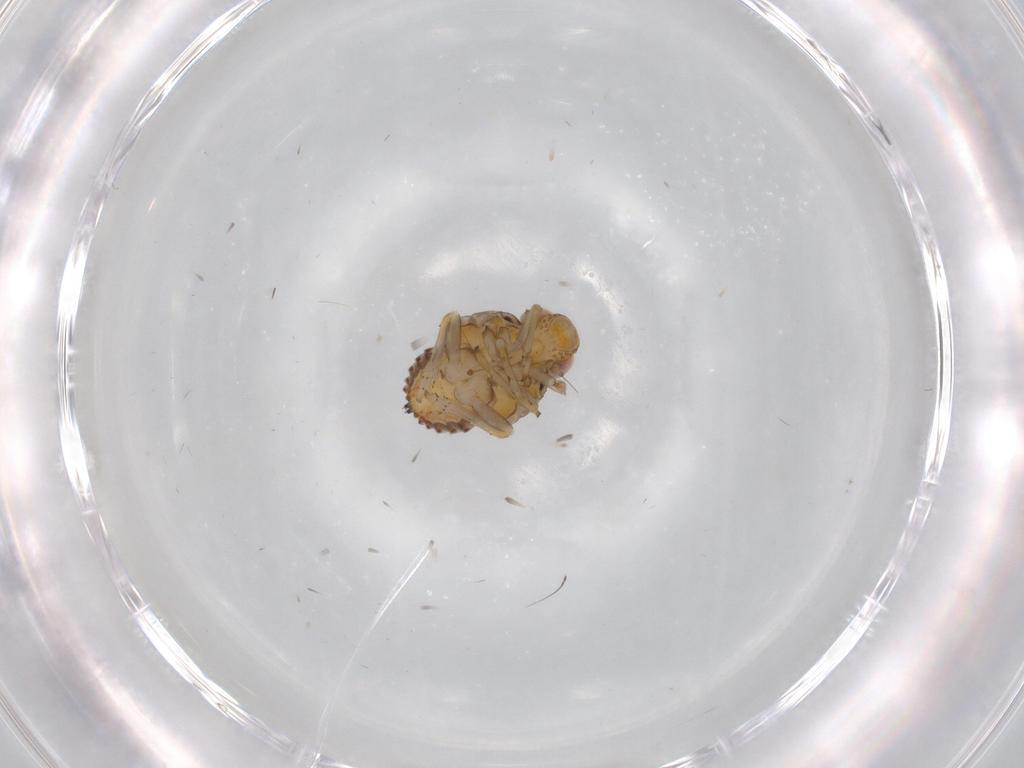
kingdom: Animalia
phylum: Arthropoda
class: Insecta
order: Hemiptera
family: Issidae
